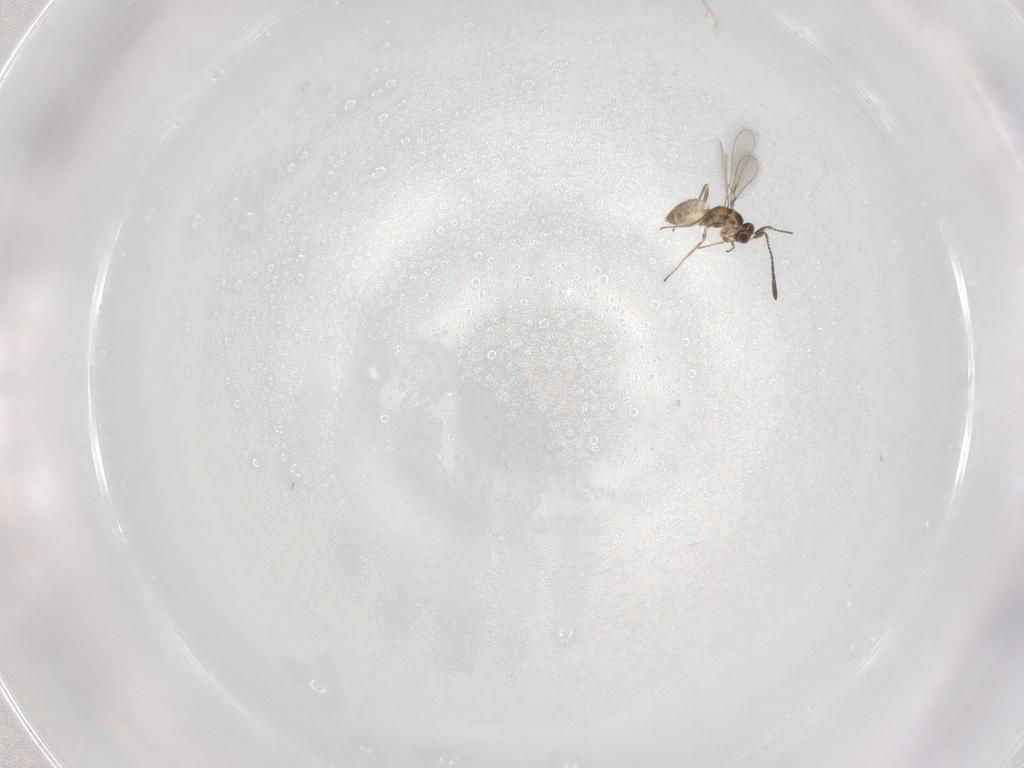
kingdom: Animalia
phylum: Arthropoda
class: Insecta
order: Hymenoptera
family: Mymaridae
